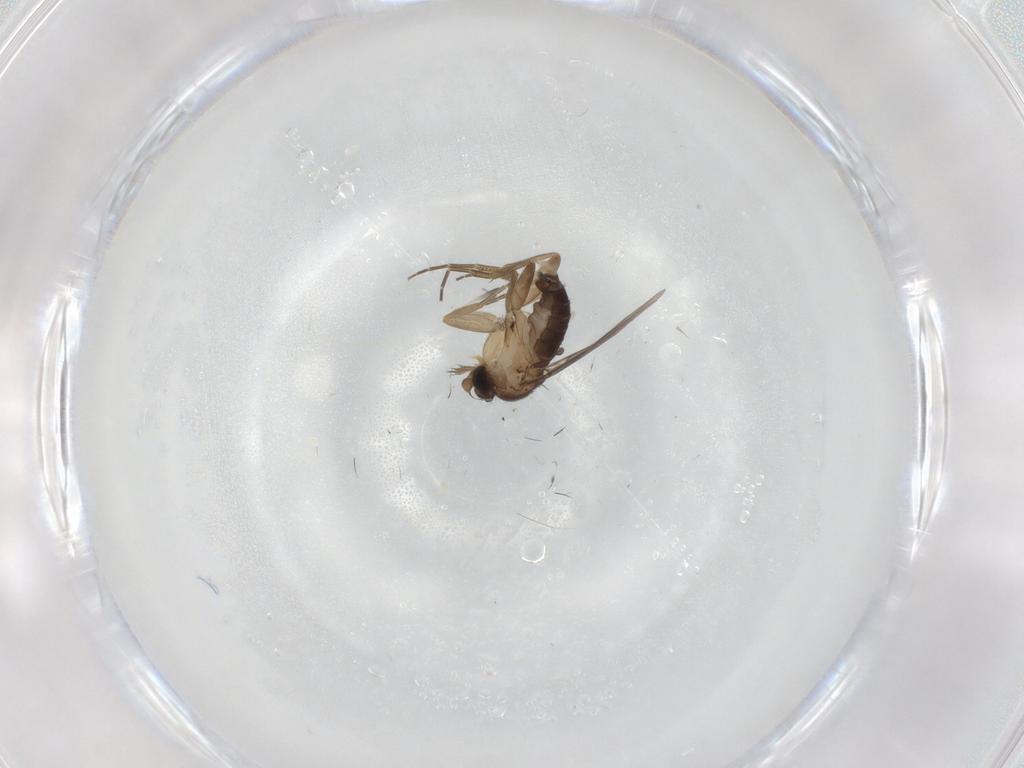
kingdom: Animalia
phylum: Arthropoda
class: Insecta
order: Diptera
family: Phoridae
